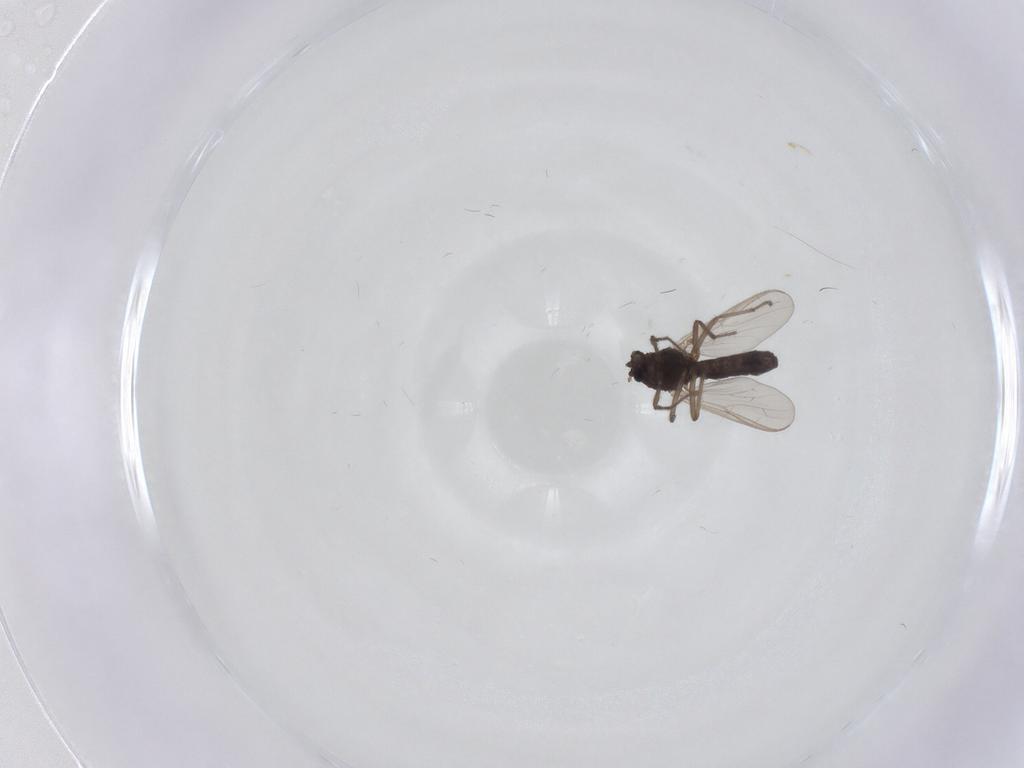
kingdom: Animalia
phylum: Arthropoda
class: Insecta
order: Diptera
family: Chironomidae
